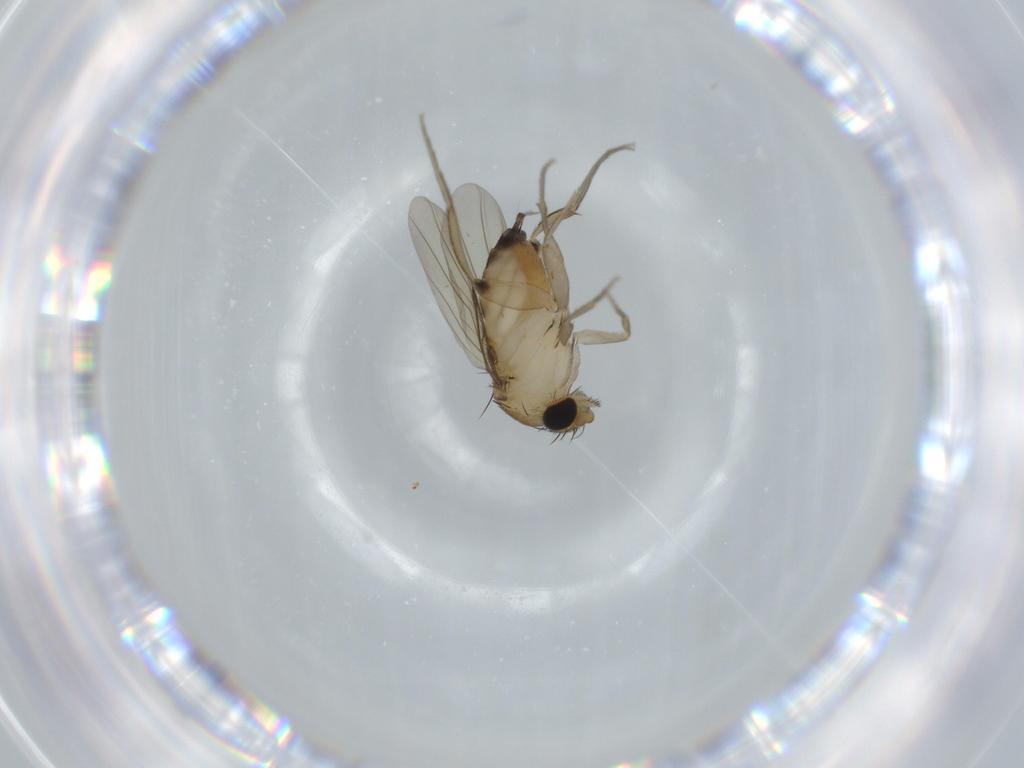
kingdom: Animalia
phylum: Arthropoda
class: Insecta
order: Diptera
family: Phoridae
